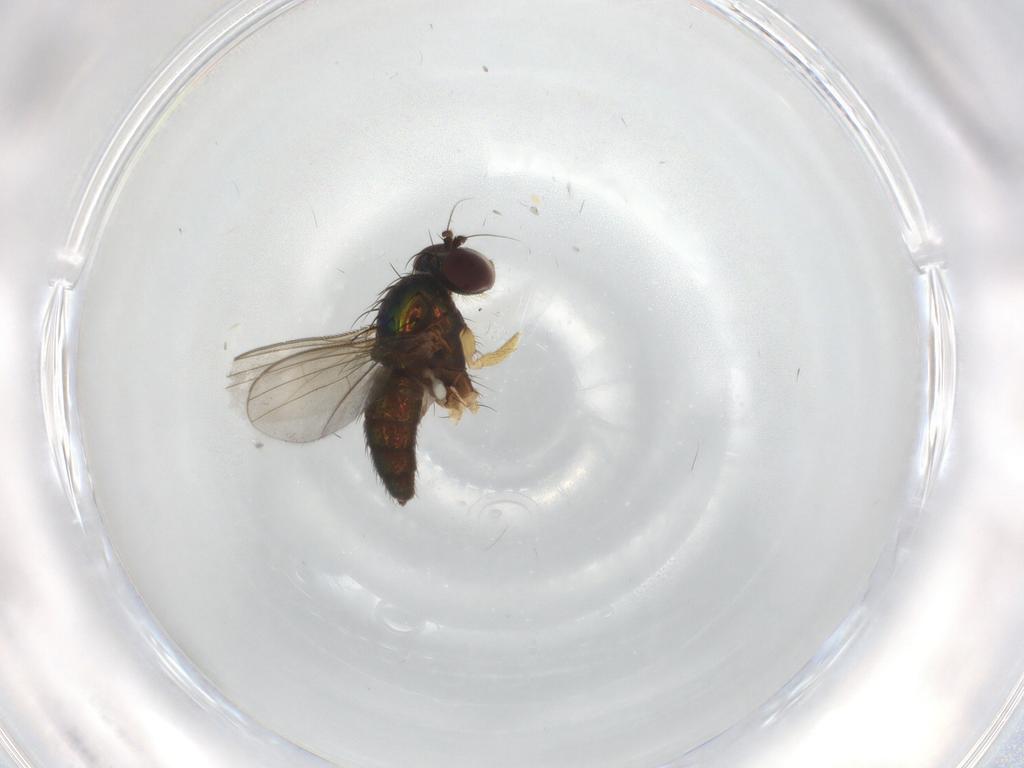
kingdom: Animalia
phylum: Arthropoda
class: Insecta
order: Diptera
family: Dolichopodidae
